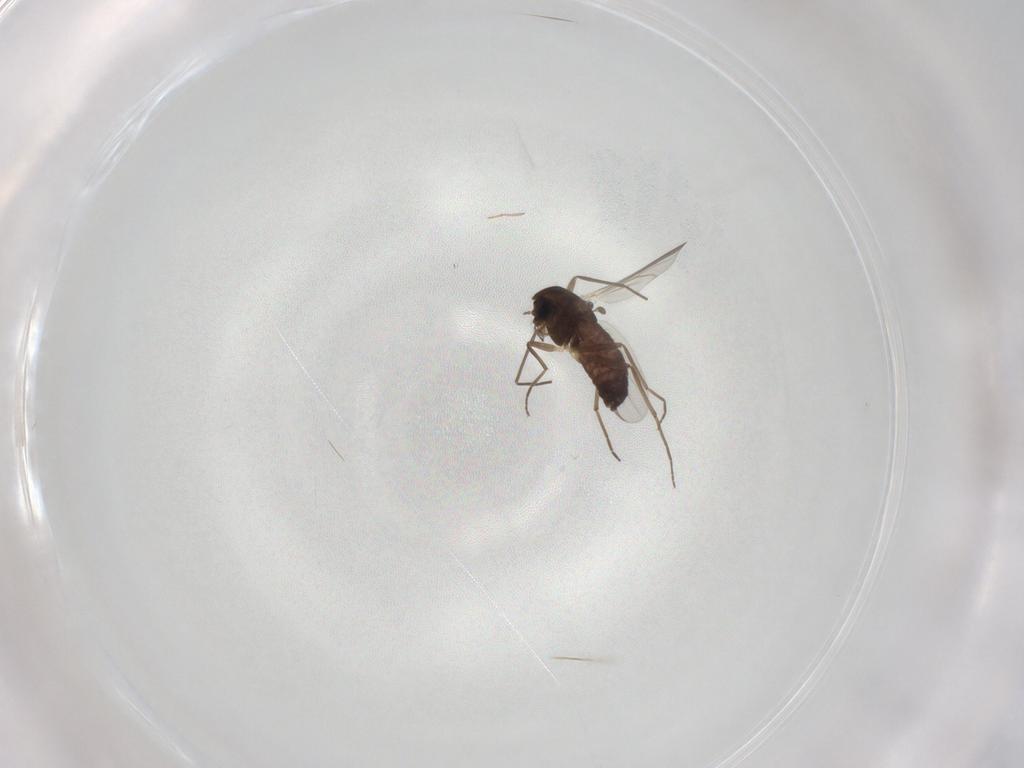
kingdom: Animalia
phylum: Arthropoda
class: Insecta
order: Diptera
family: Chironomidae
